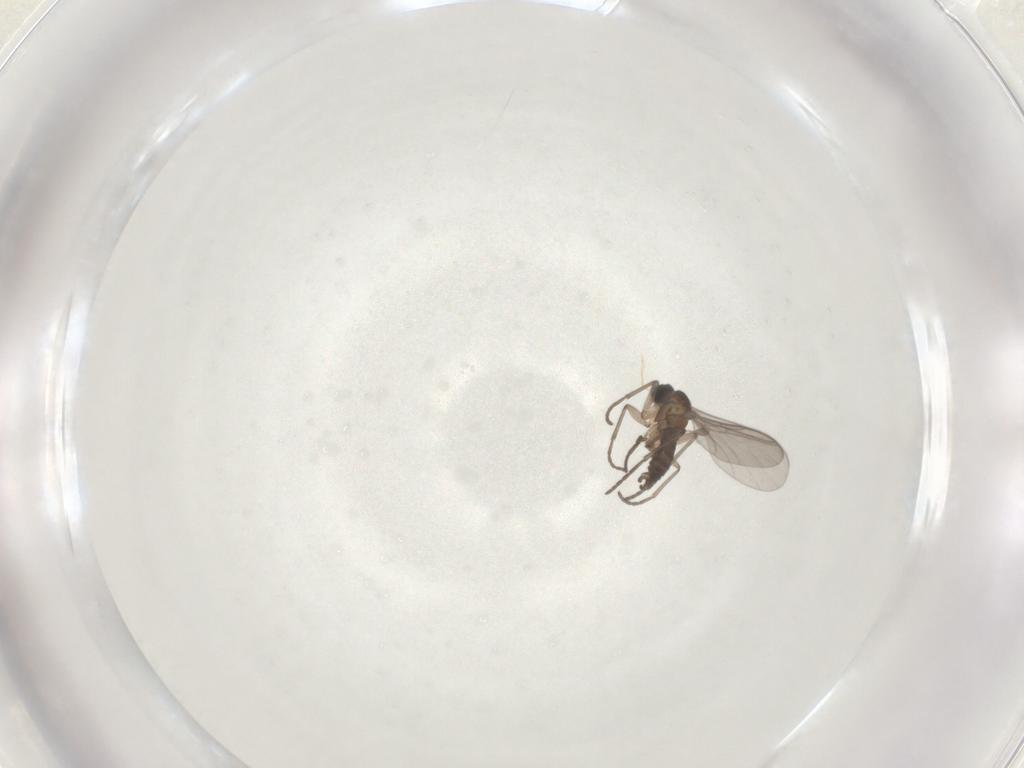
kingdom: Animalia
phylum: Arthropoda
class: Insecta
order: Diptera
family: Sciaridae
